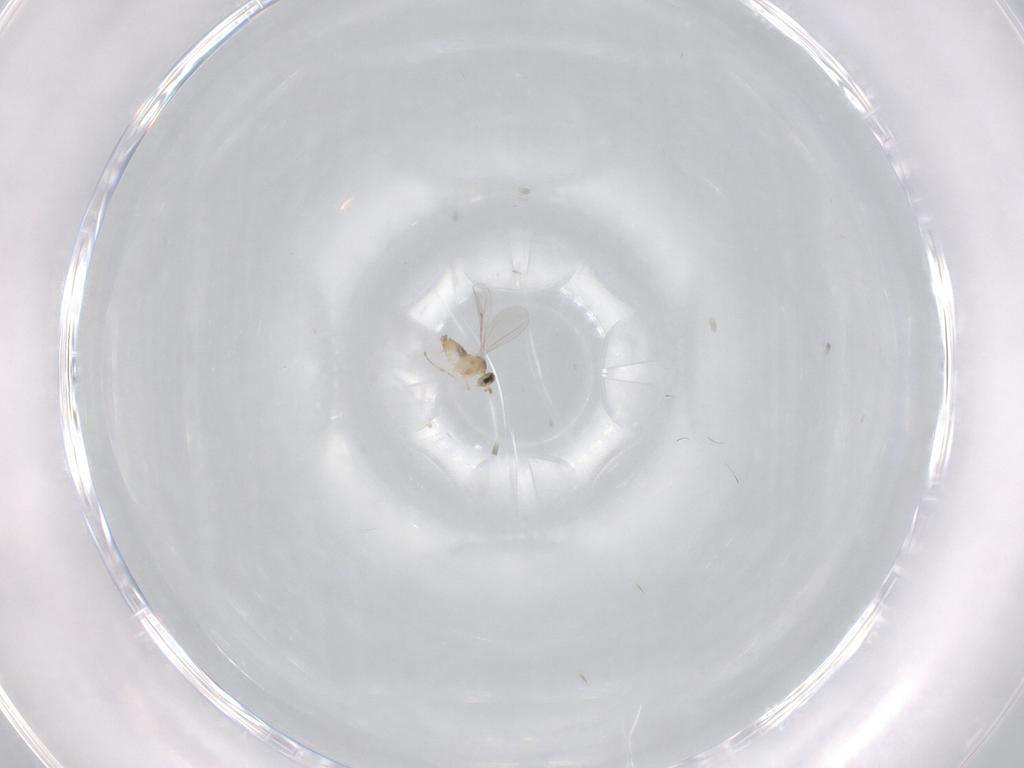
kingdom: Animalia
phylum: Arthropoda
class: Insecta
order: Diptera
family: Cecidomyiidae
